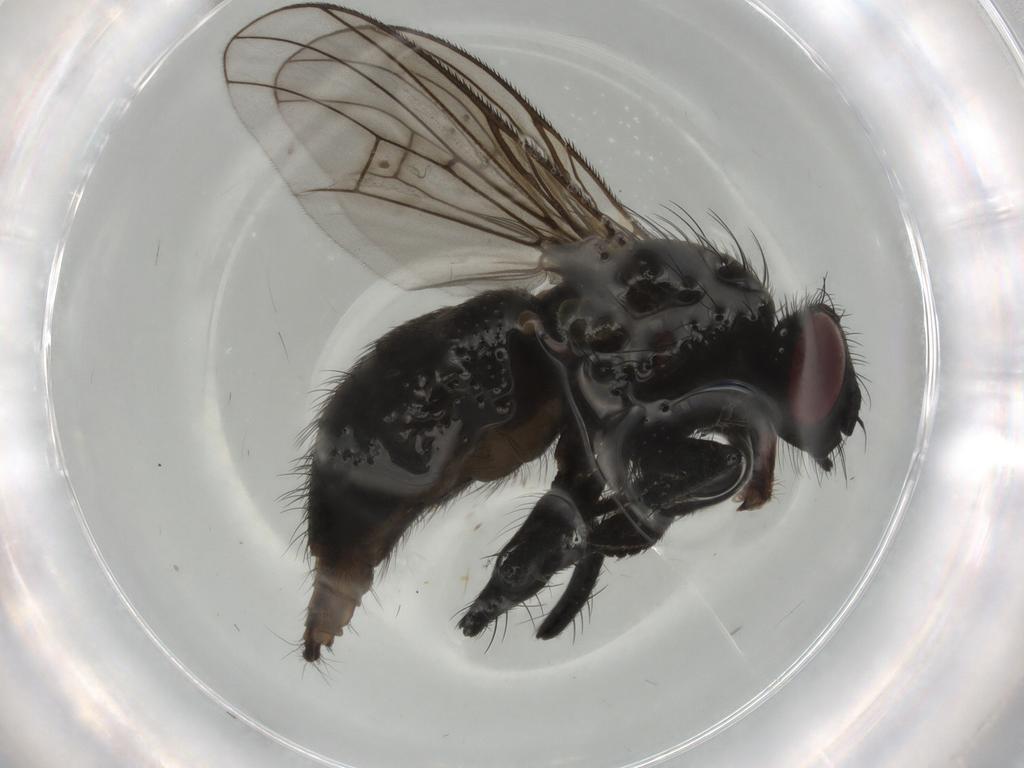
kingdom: Animalia
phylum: Arthropoda
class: Insecta
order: Diptera
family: Muscidae
